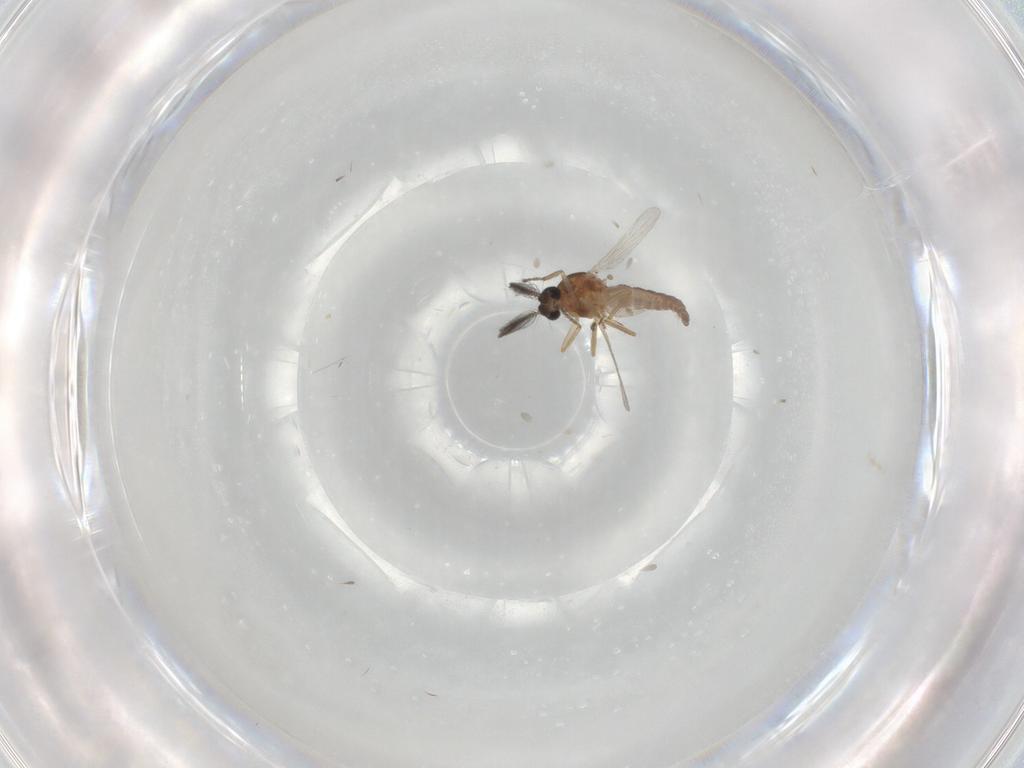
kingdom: Animalia
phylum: Arthropoda
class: Insecta
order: Diptera
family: Ceratopogonidae
